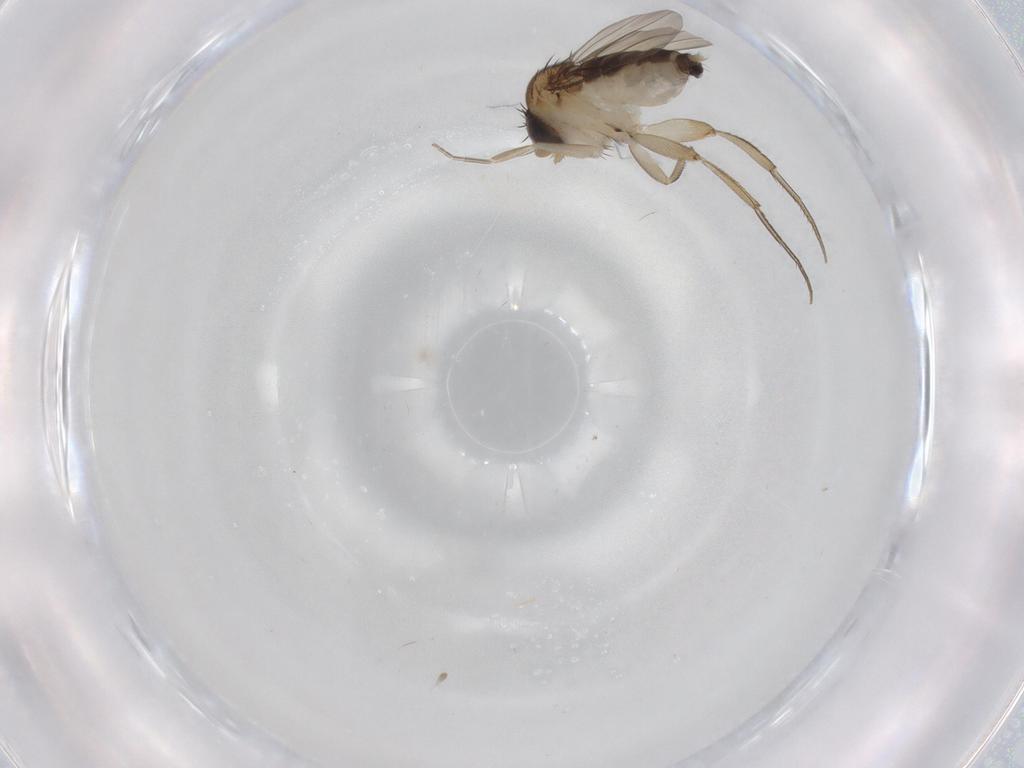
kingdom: Animalia
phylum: Arthropoda
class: Insecta
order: Diptera
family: Phoridae
